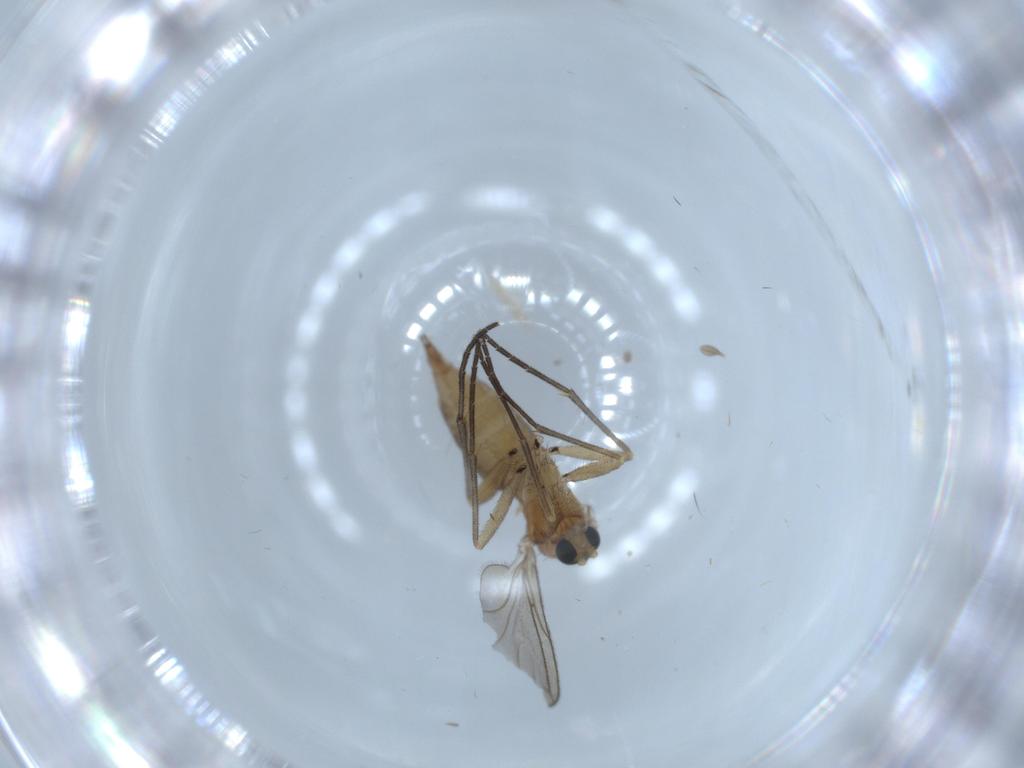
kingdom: Animalia
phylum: Arthropoda
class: Insecta
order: Diptera
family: Sciaridae
